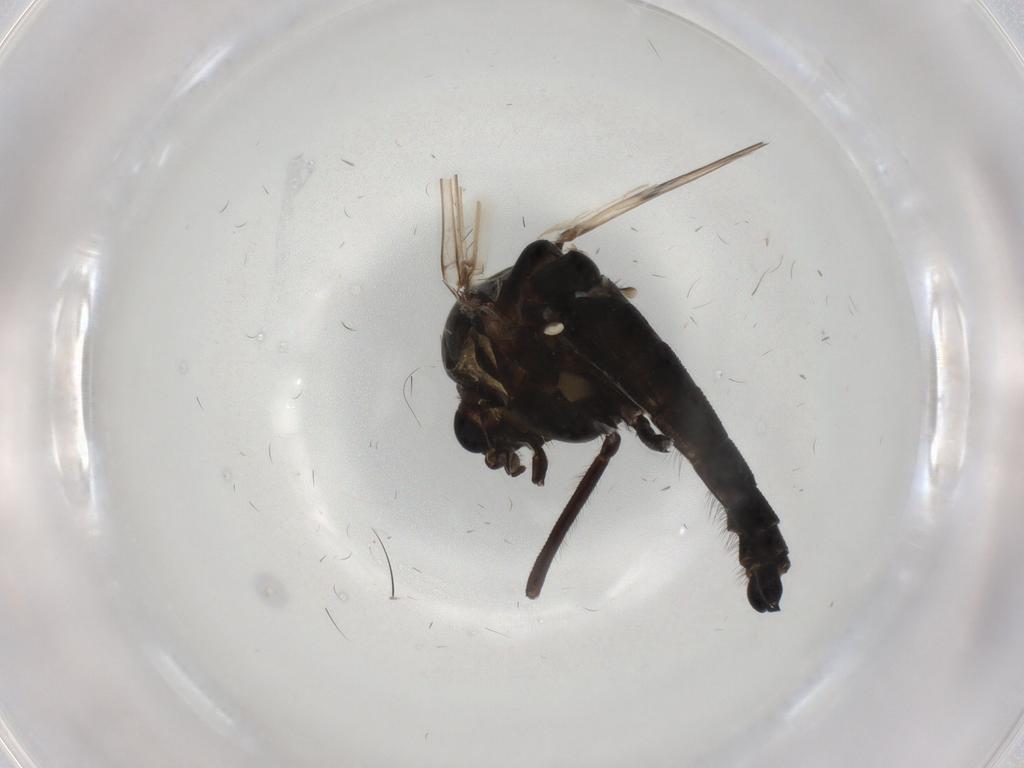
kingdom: Animalia
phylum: Arthropoda
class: Insecta
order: Diptera
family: Chironomidae
